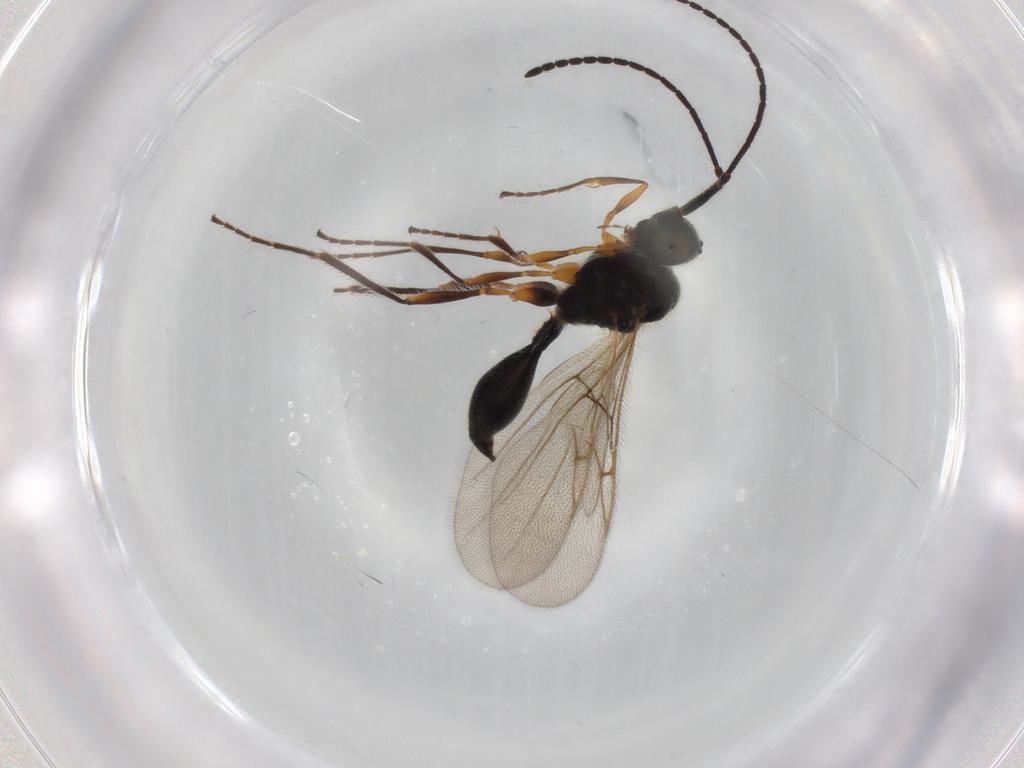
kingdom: Animalia
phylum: Arthropoda
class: Insecta
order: Hymenoptera
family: Diapriidae
